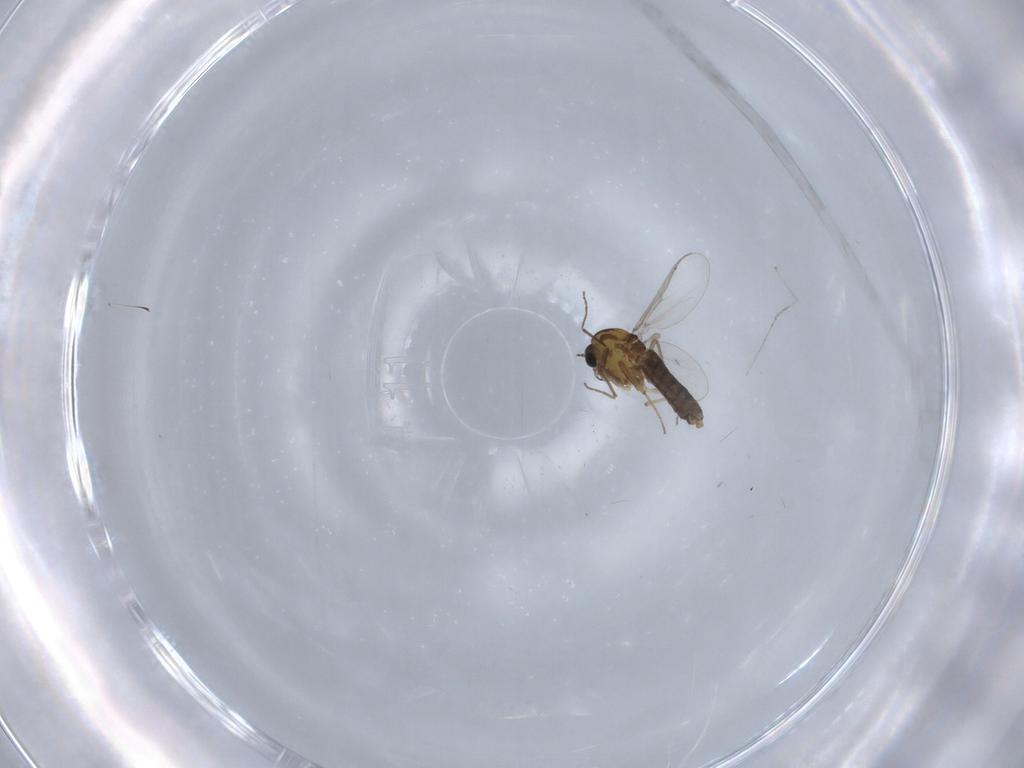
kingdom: Animalia
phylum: Arthropoda
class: Insecta
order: Diptera
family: Chironomidae
